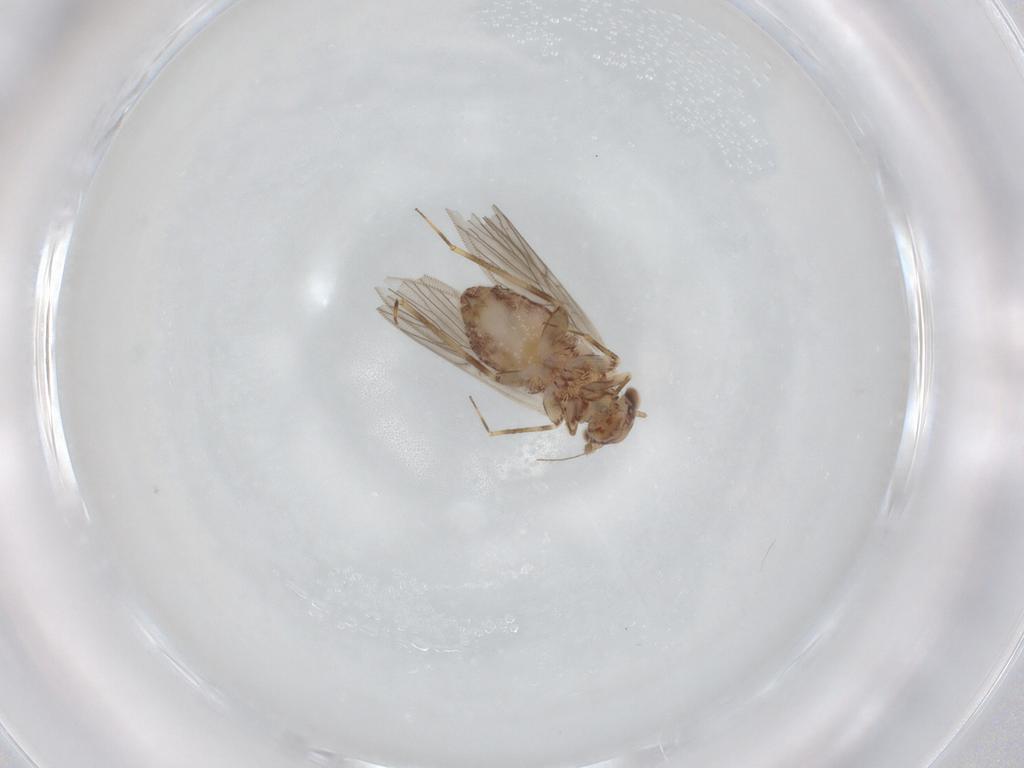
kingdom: Animalia
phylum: Arthropoda
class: Insecta
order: Psocodea
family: Lepidopsocidae
